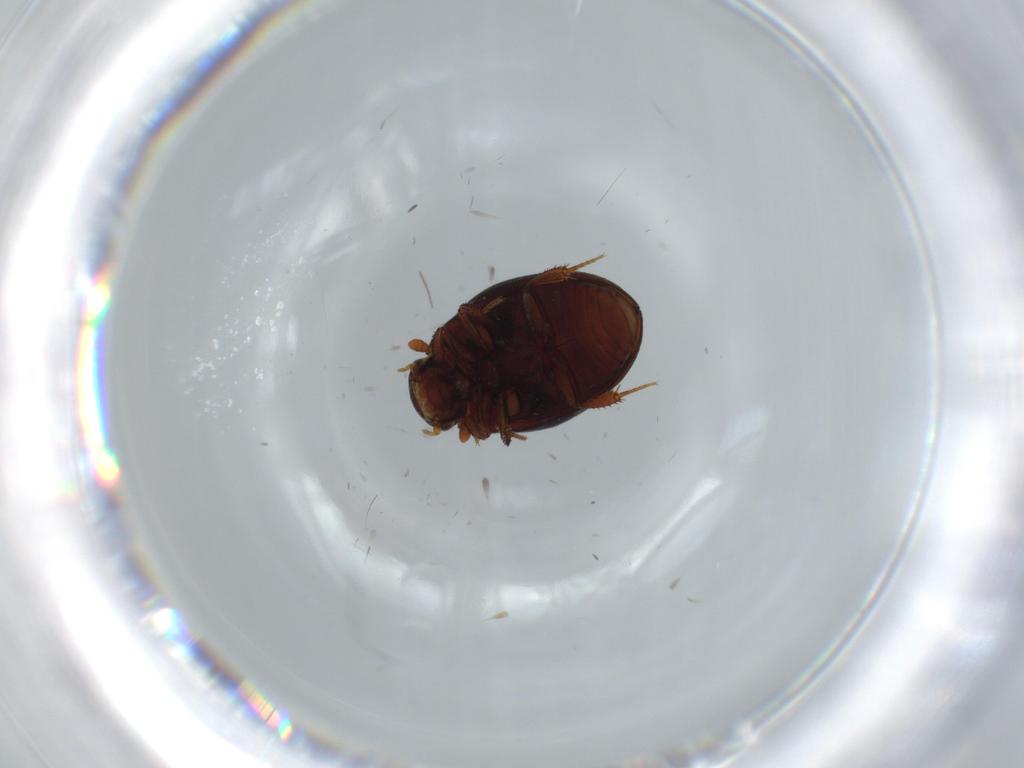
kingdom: Animalia
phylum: Arthropoda
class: Insecta
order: Coleoptera
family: Hydrophilidae
